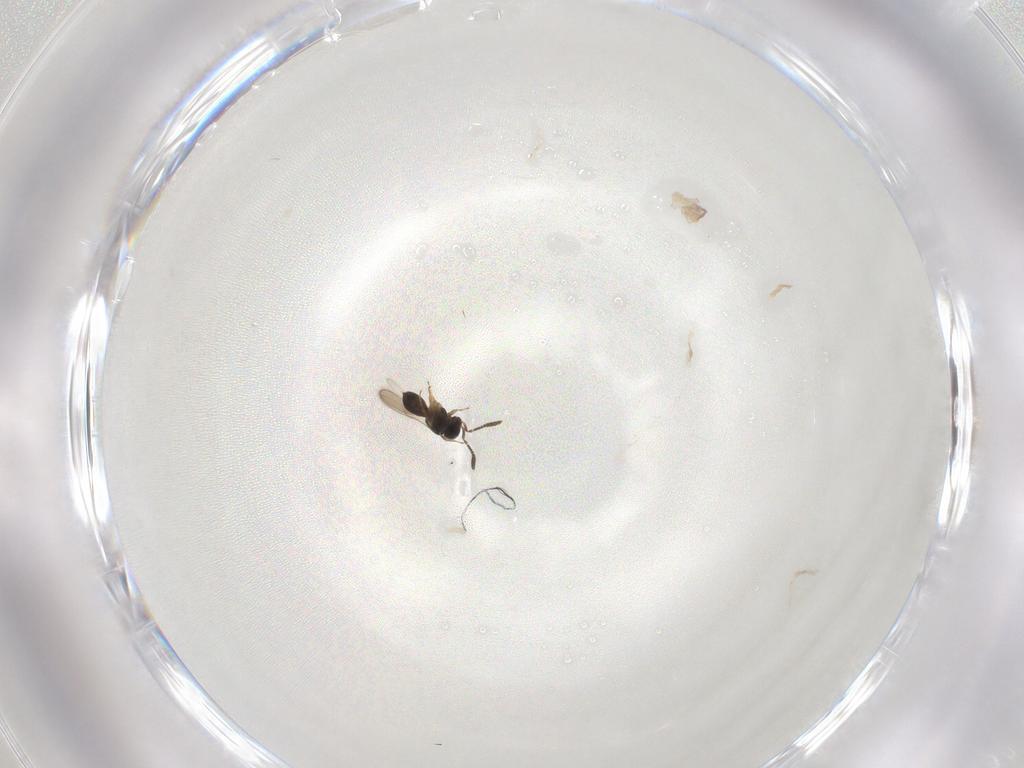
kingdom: Animalia
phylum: Arthropoda
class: Insecta
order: Hymenoptera
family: Scelionidae
